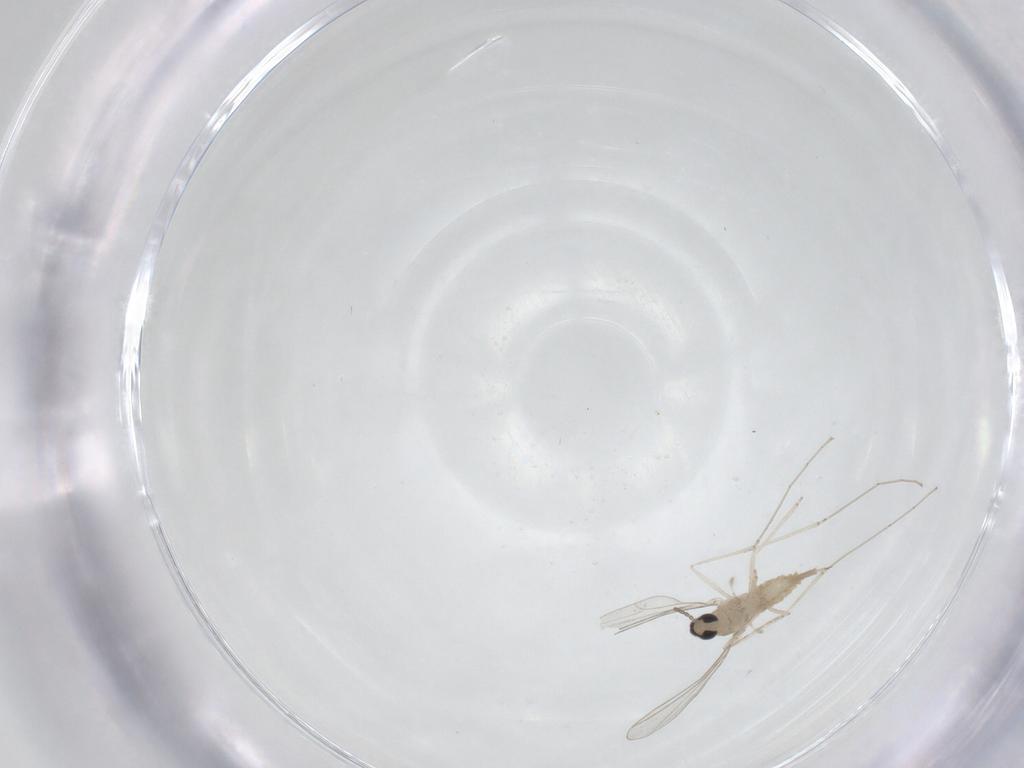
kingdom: Animalia
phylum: Arthropoda
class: Insecta
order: Diptera
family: Cecidomyiidae
